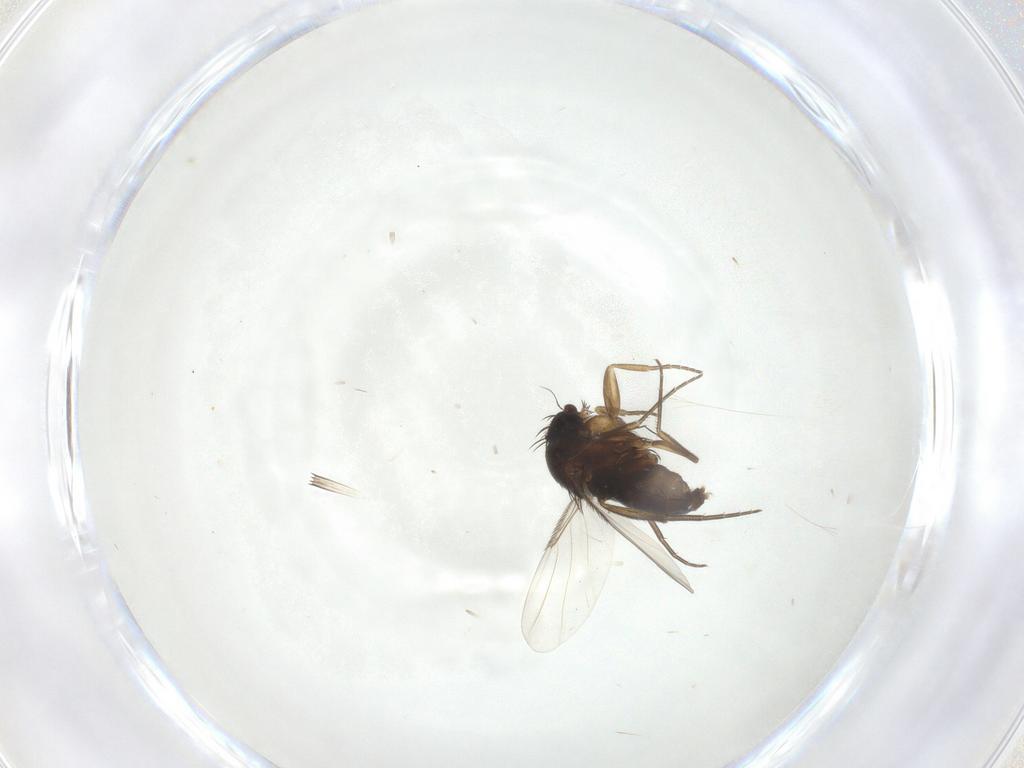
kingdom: Animalia
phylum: Arthropoda
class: Insecta
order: Diptera
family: Phoridae
